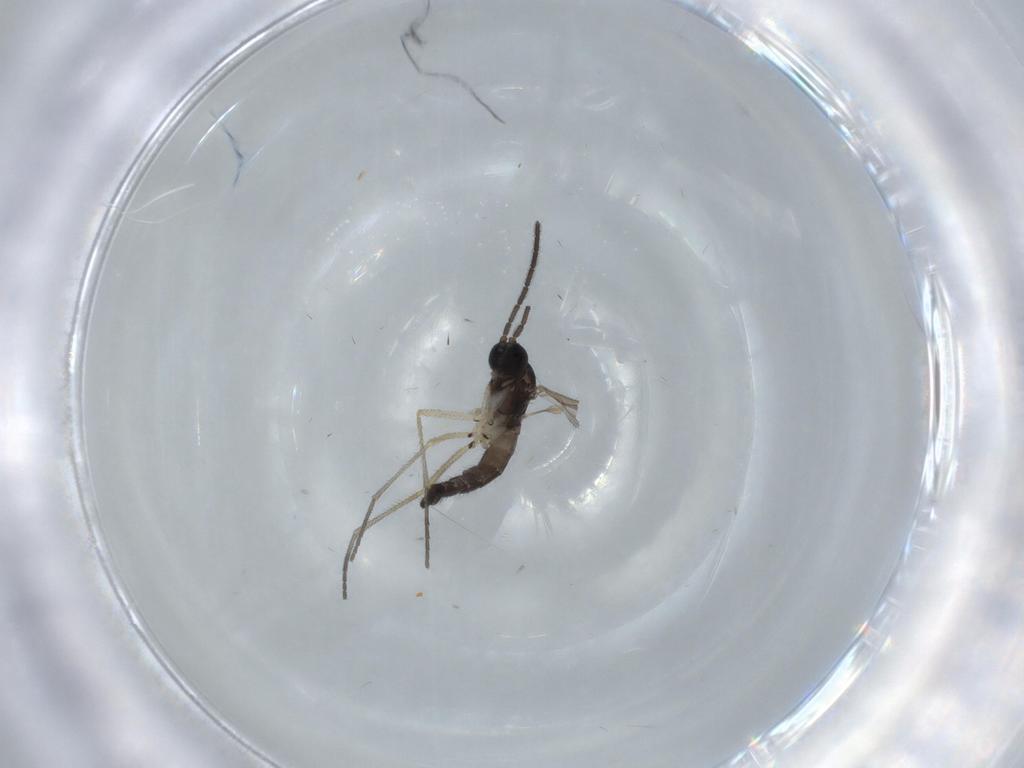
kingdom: Animalia
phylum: Arthropoda
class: Insecta
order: Diptera
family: Sciaridae
